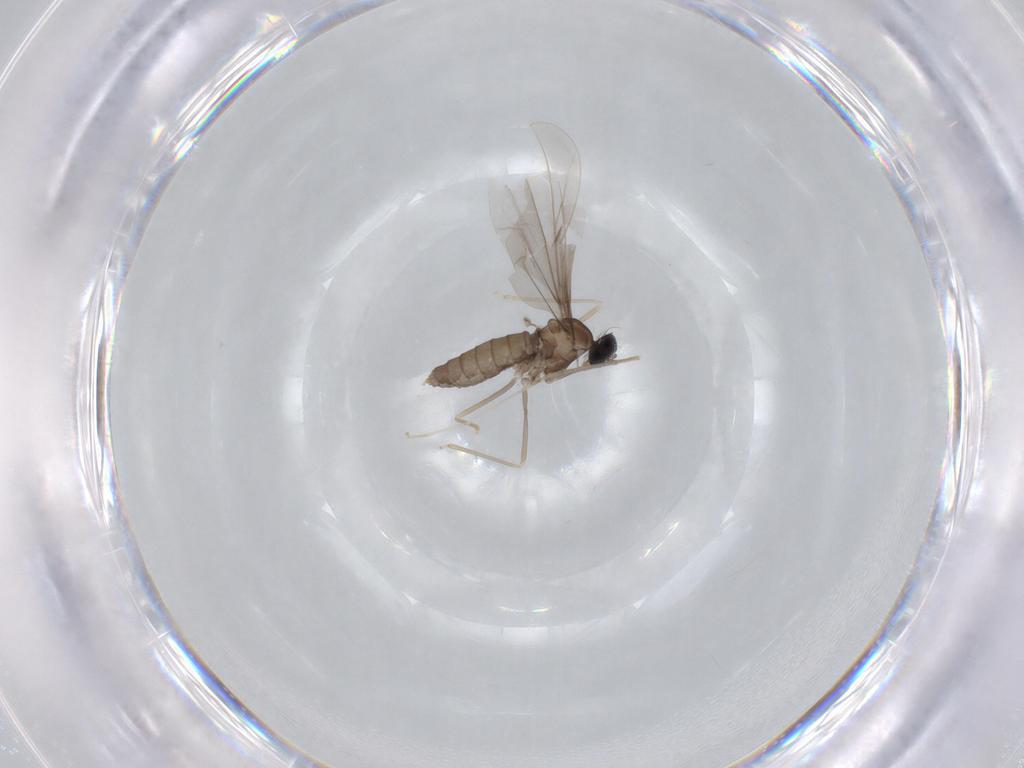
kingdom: Animalia
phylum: Arthropoda
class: Insecta
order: Diptera
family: Cecidomyiidae
